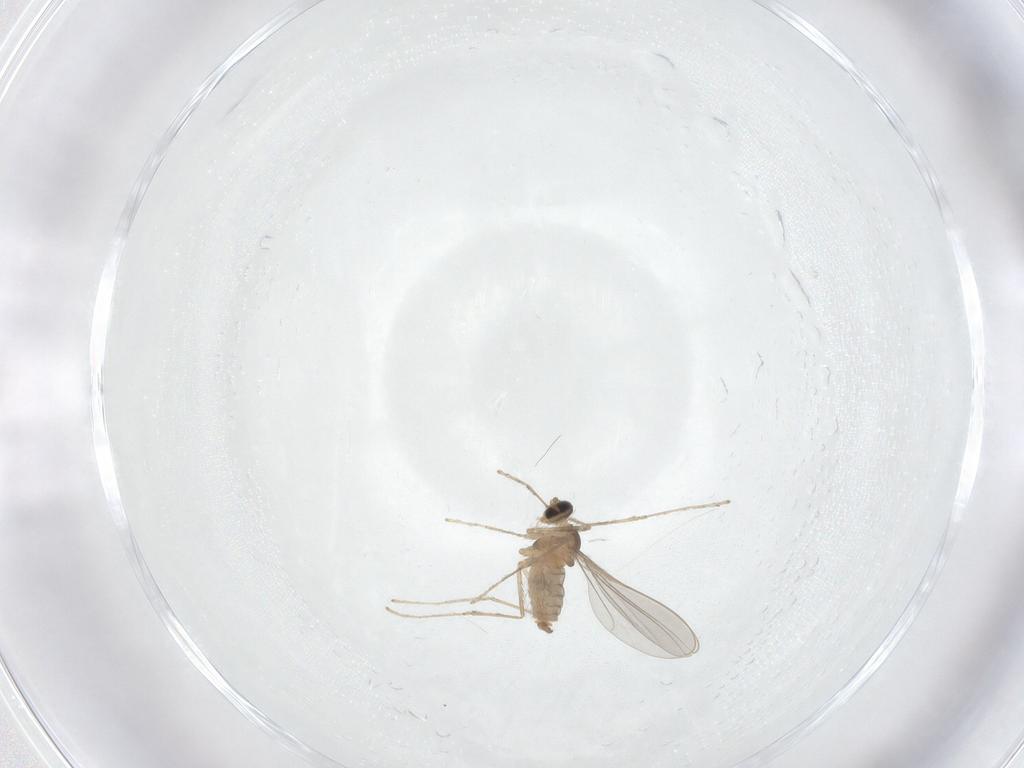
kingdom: Animalia
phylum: Arthropoda
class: Insecta
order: Diptera
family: Cecidomyiidae
